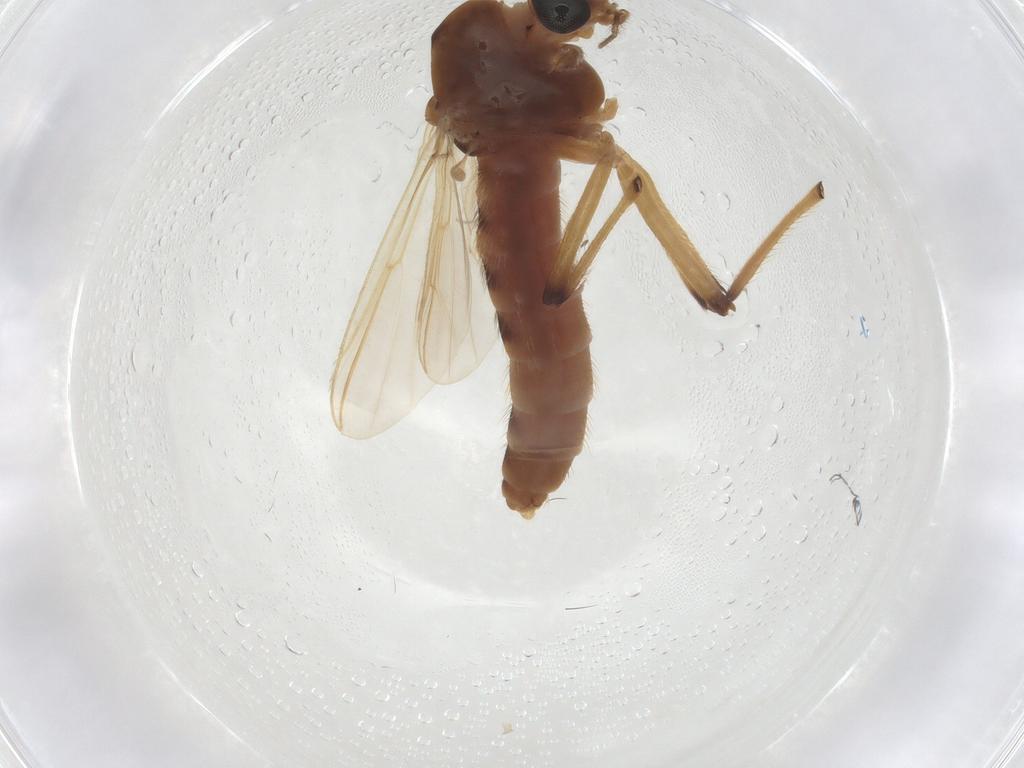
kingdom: Animalia
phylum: Arthropoda
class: Insecta
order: Diptera
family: Chironomidae
